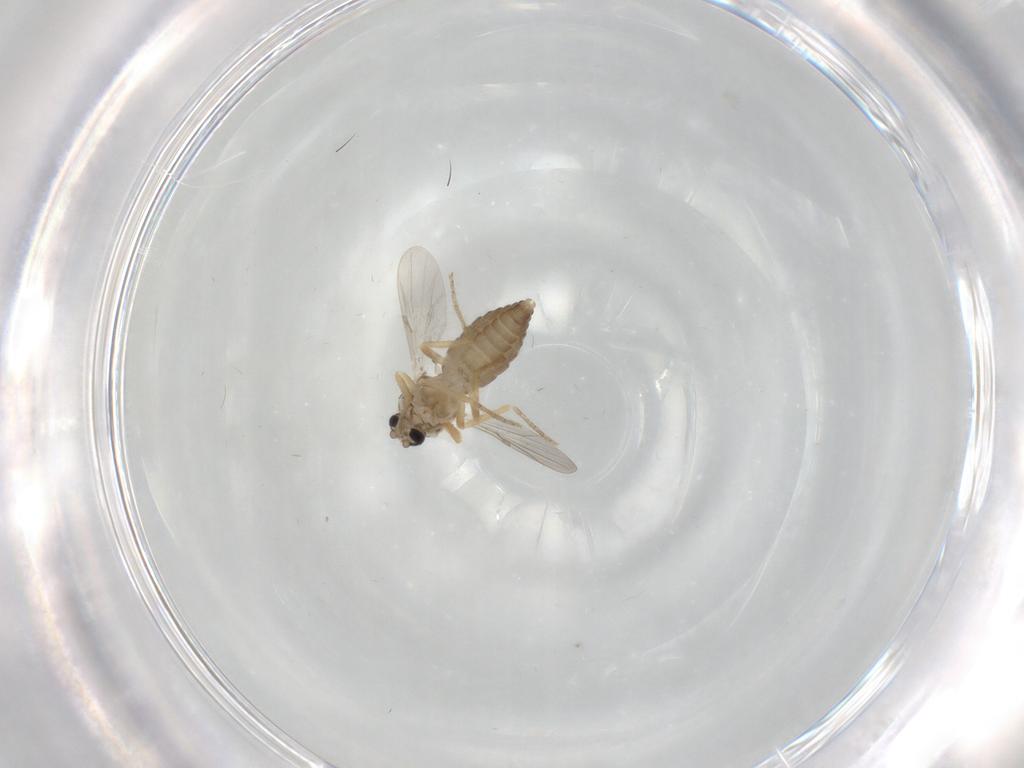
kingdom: Animalia
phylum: Arthropoda
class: Insecta
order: Diptera
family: Ceratopogonidae
